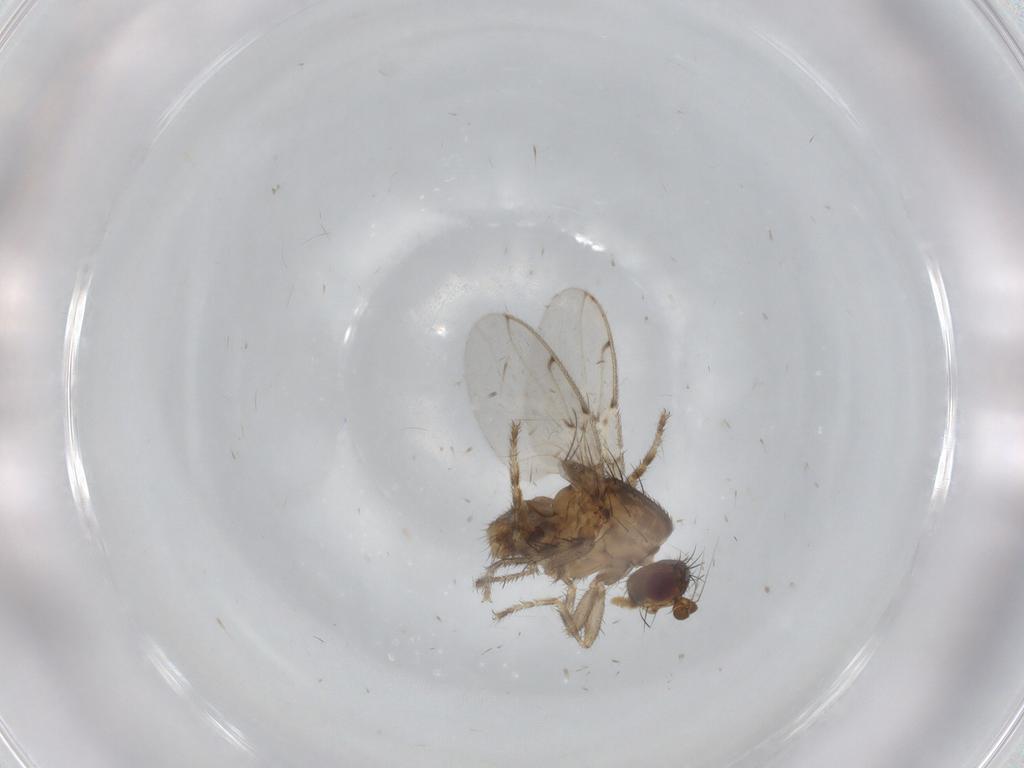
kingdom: Animalia
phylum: Arthropoda
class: Insecta
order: Diptera
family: Sphaeroceridae
